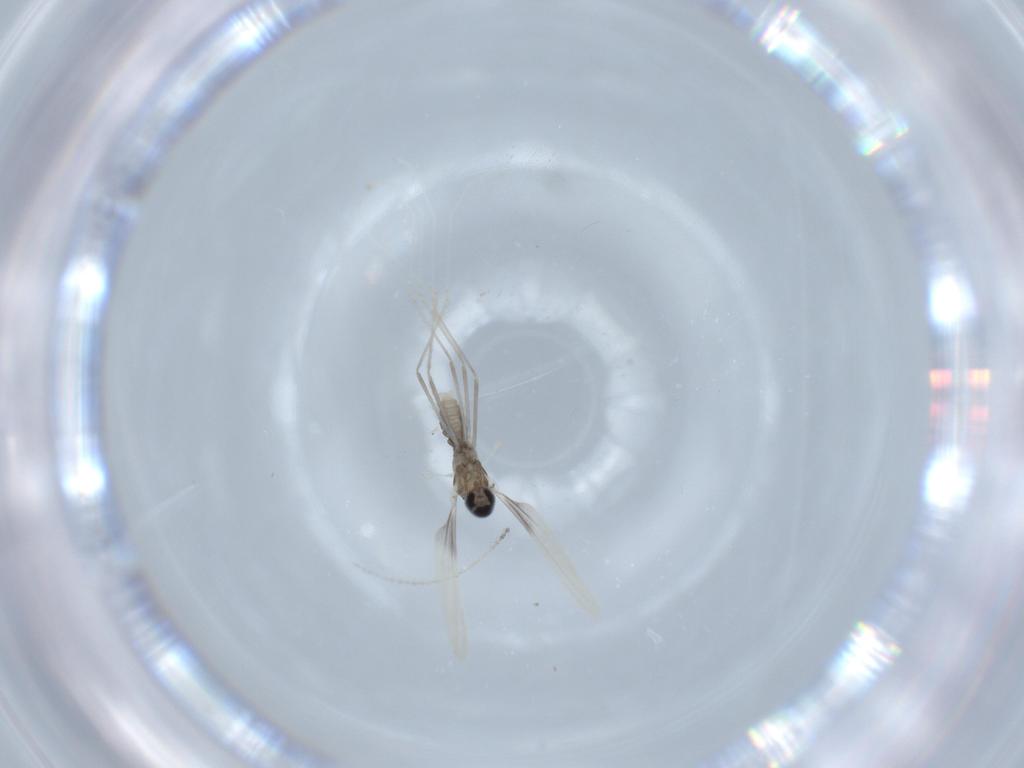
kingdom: Animalia
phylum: Arthropoda
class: Insecta
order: Diptera
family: Cecidomyiidae
